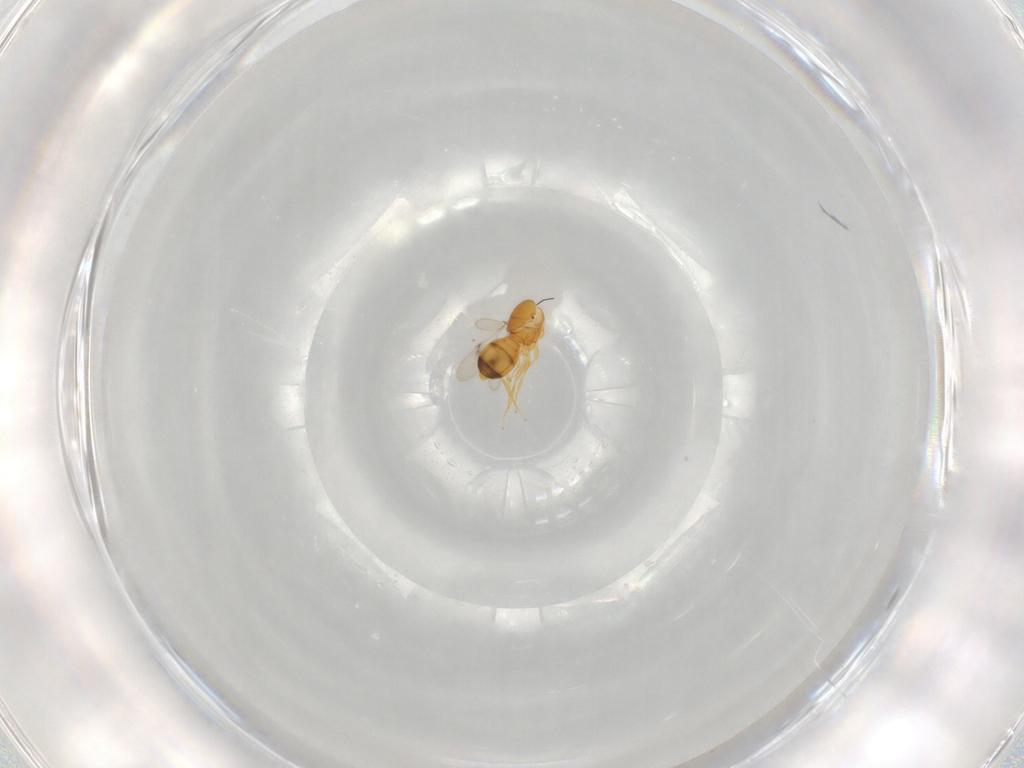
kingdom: Animalia
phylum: Arthropoda
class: Insecta
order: Hymenoptera
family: Scelionidae
